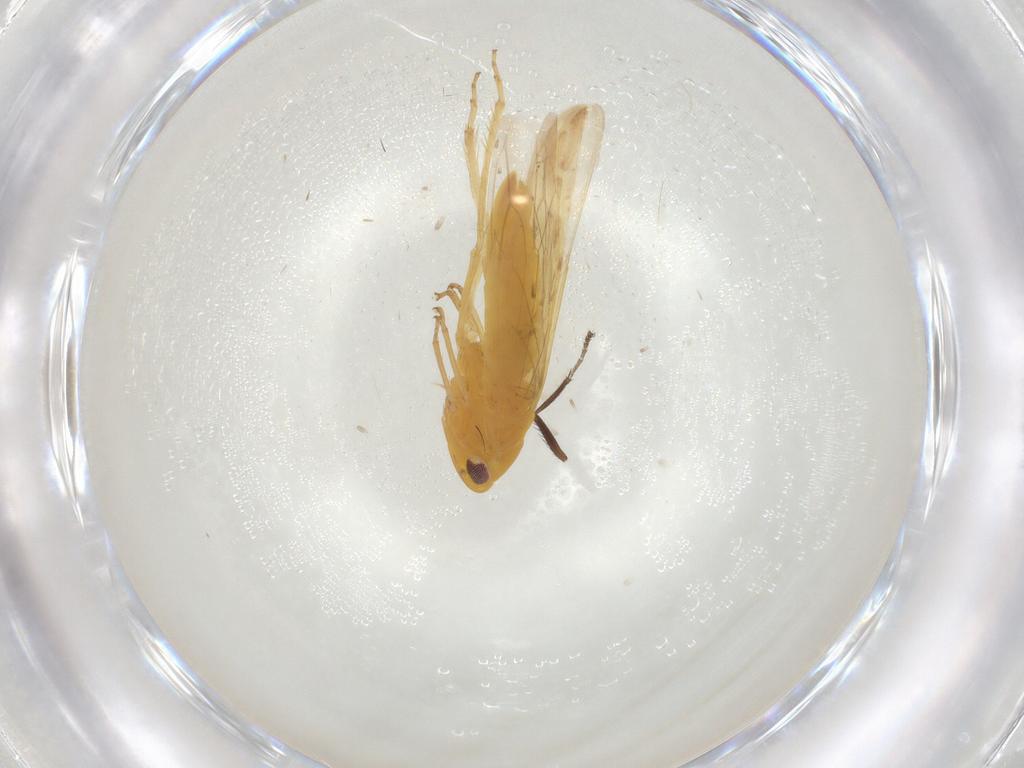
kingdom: Animalia
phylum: Arthropoda
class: Insecta
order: Hemiptera
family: Cicadellidae
